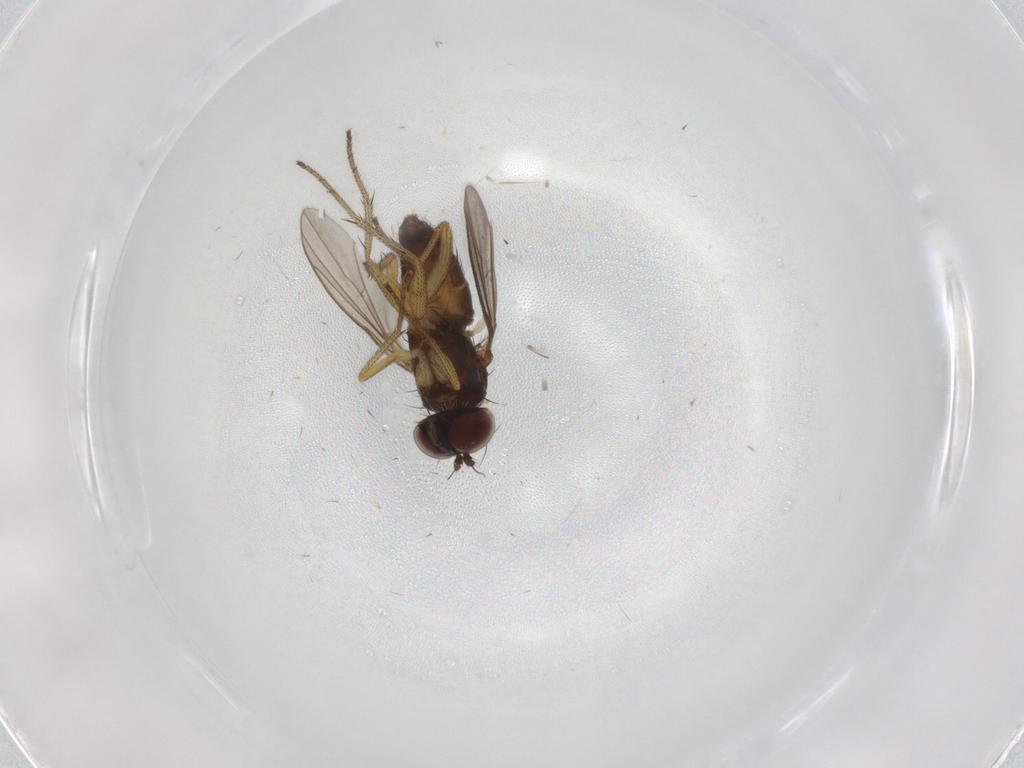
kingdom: Animalia
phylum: Arthropoda
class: Insecta
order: Diptera
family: Dolichopodidae
